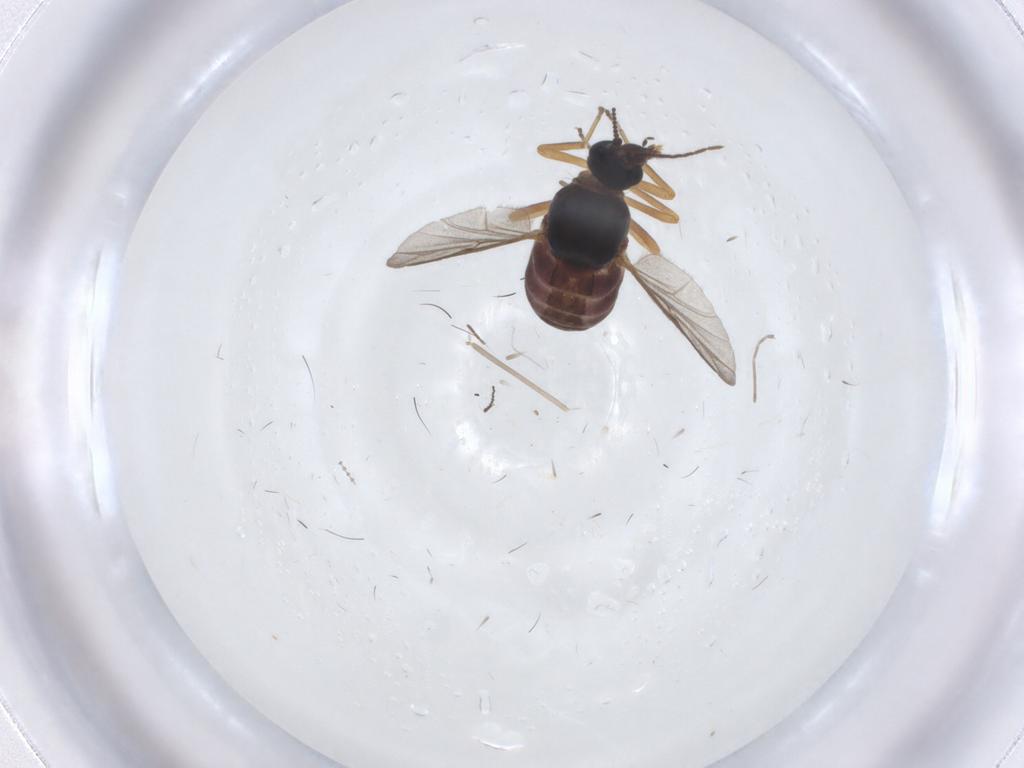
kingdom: Animalia
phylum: Arthropoda
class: Insecta
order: Diptera
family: Ceratopogonidae
